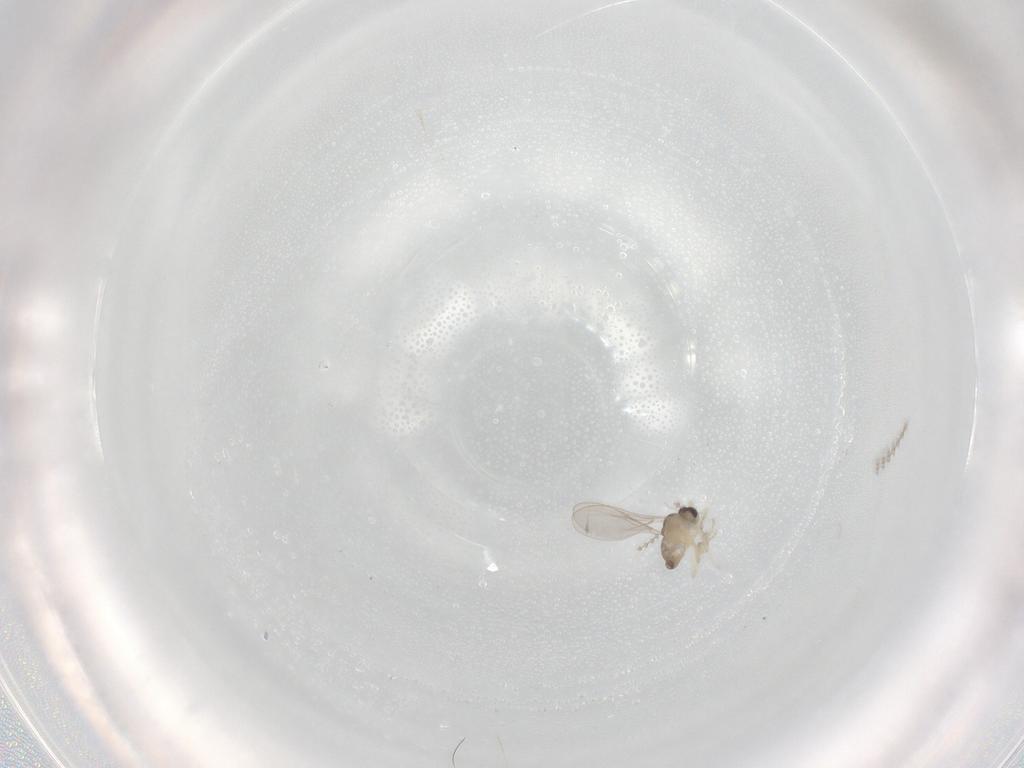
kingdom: Animalia
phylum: Arthropoda
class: Insecta
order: Diptera
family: Cecidomyiidae
